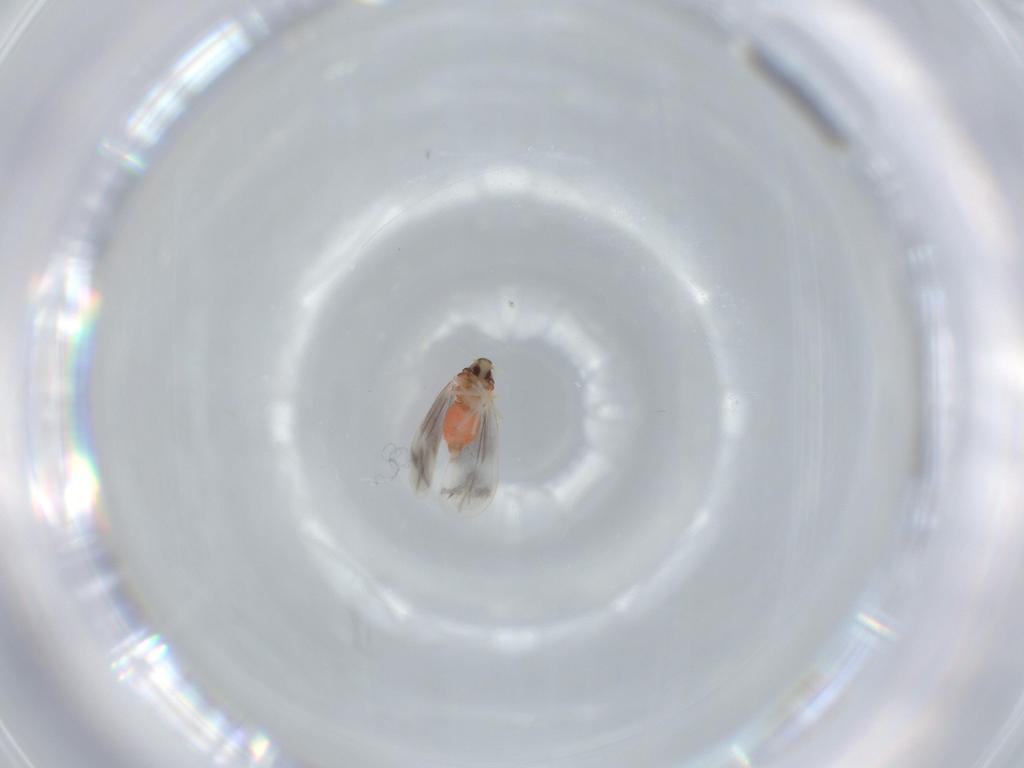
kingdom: Animalia
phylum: Arthropoda
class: Insecta
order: Hemiptera
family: Aleyrodidae
